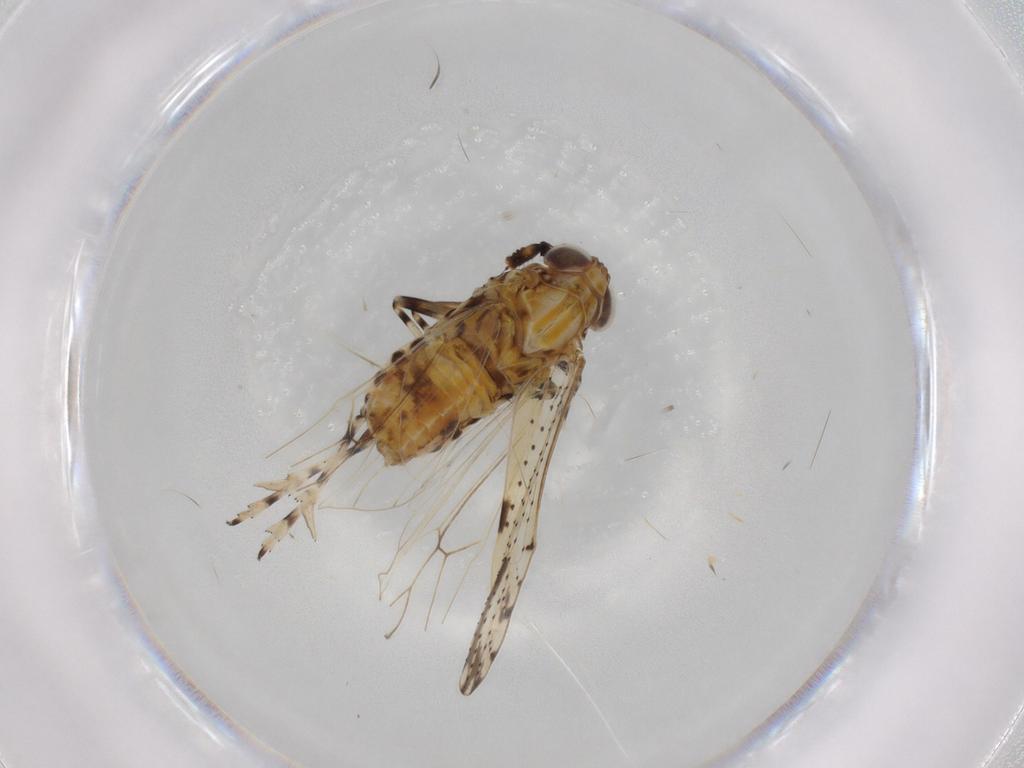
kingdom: Animalia
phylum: Arthropoda
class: Insecta
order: Hemiptera
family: Delphacidae
